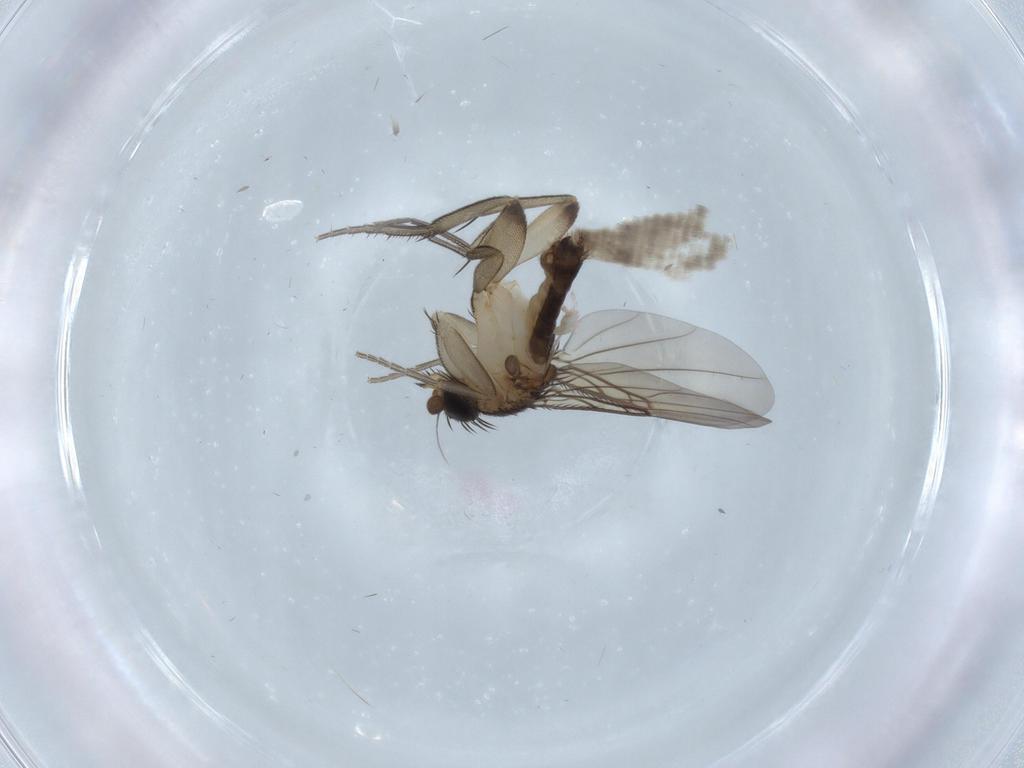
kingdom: Animalia
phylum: Arthropoda
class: Insecta
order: Diptera
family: Phoridae
